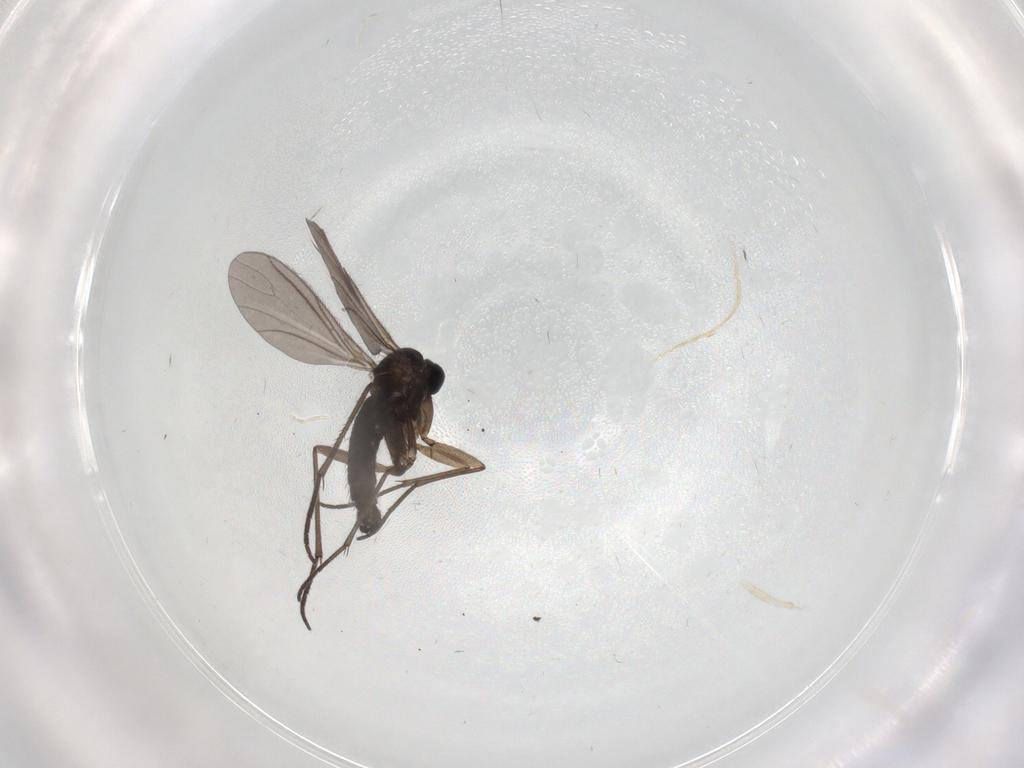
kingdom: Animalia
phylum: Arthropoda
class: Insecta
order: Diptera
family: Sciaridae
